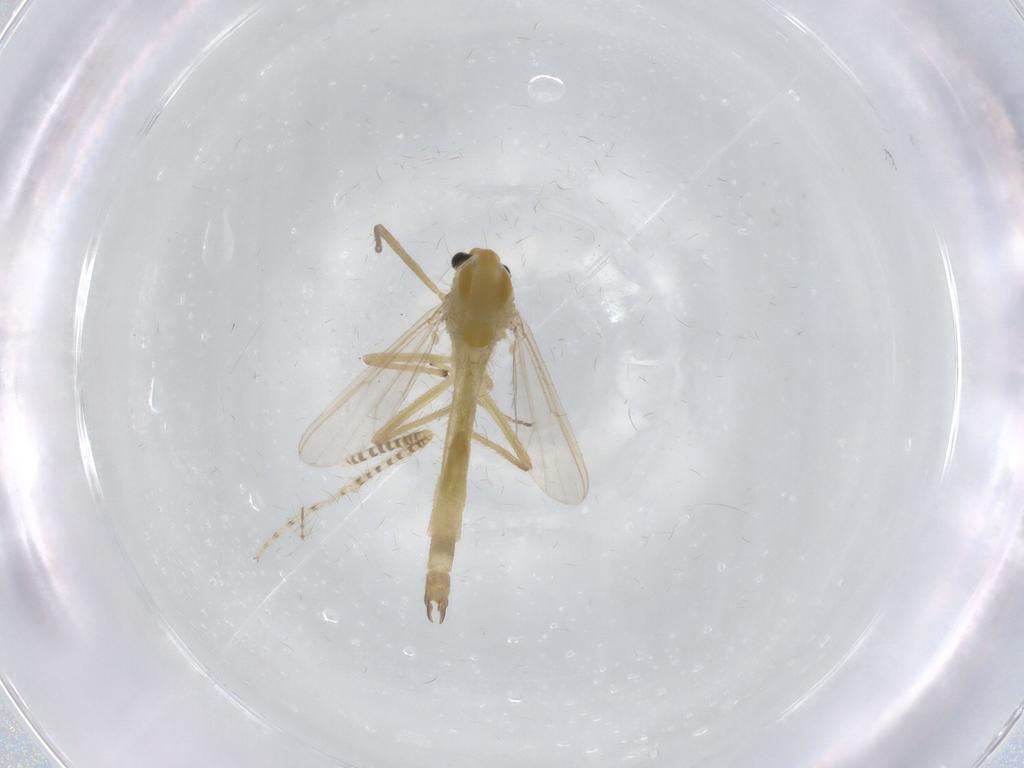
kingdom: Animalia
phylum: Arthropoda
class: Insecta
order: Diptera
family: Chironomidae
